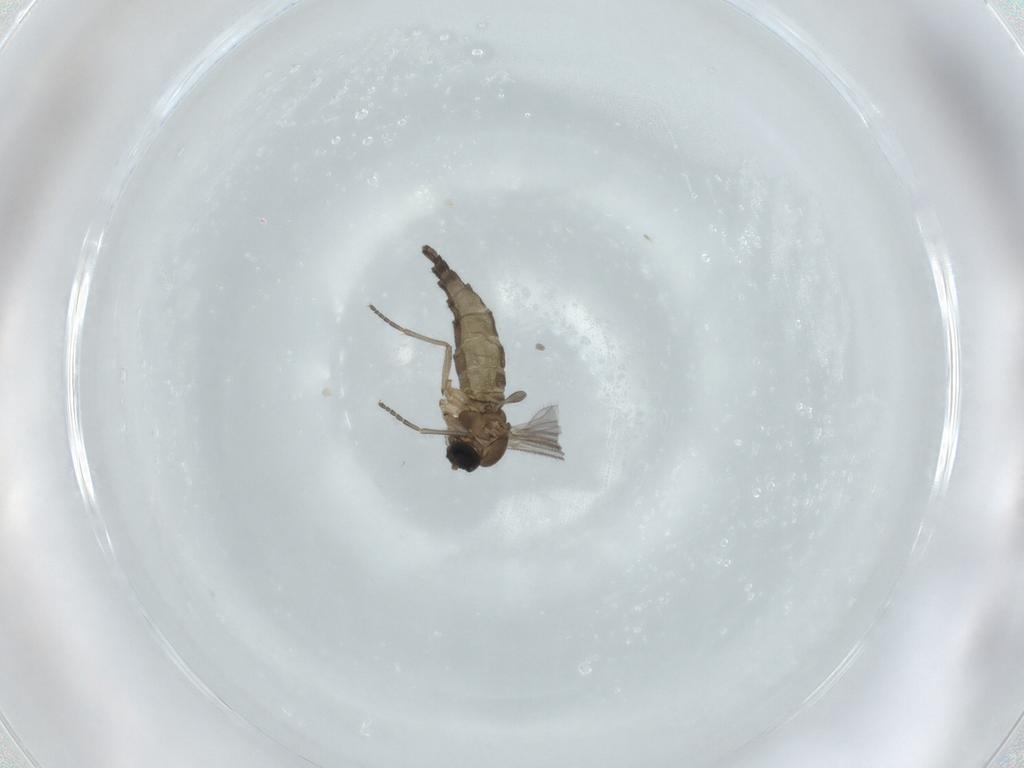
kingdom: Animalia
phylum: Arthropoda
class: Insecta
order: Diptera
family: Sciaridae
